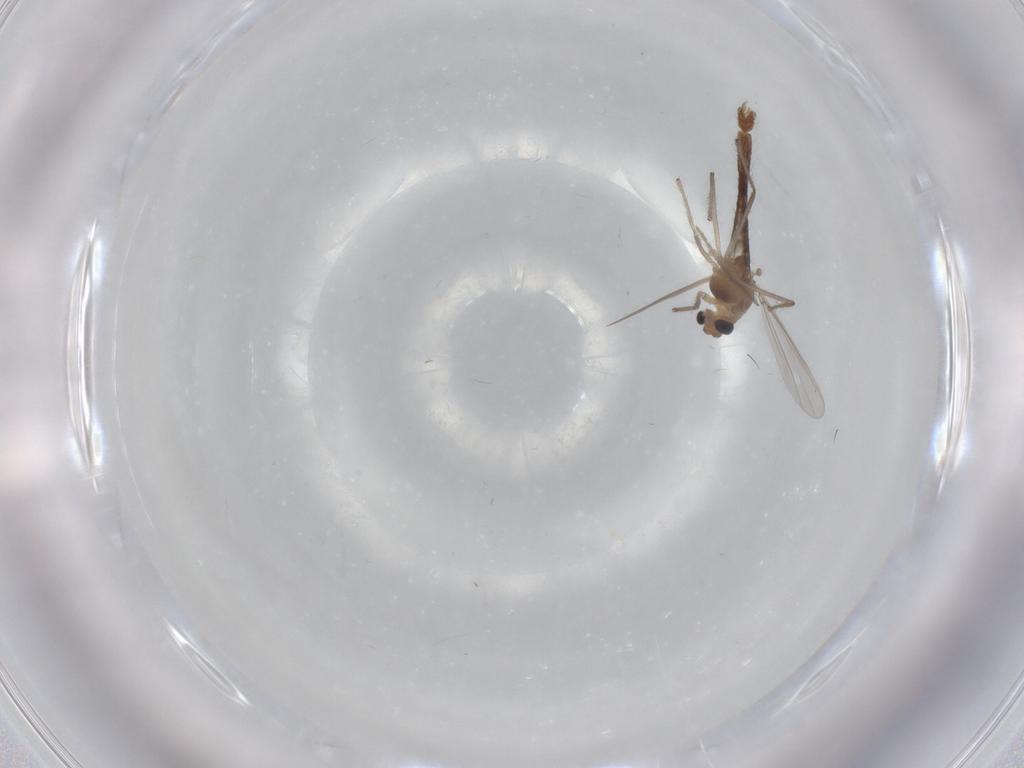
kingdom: Animalia
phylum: Arthropoda
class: Insecta
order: Diptera
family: Chironomidae
